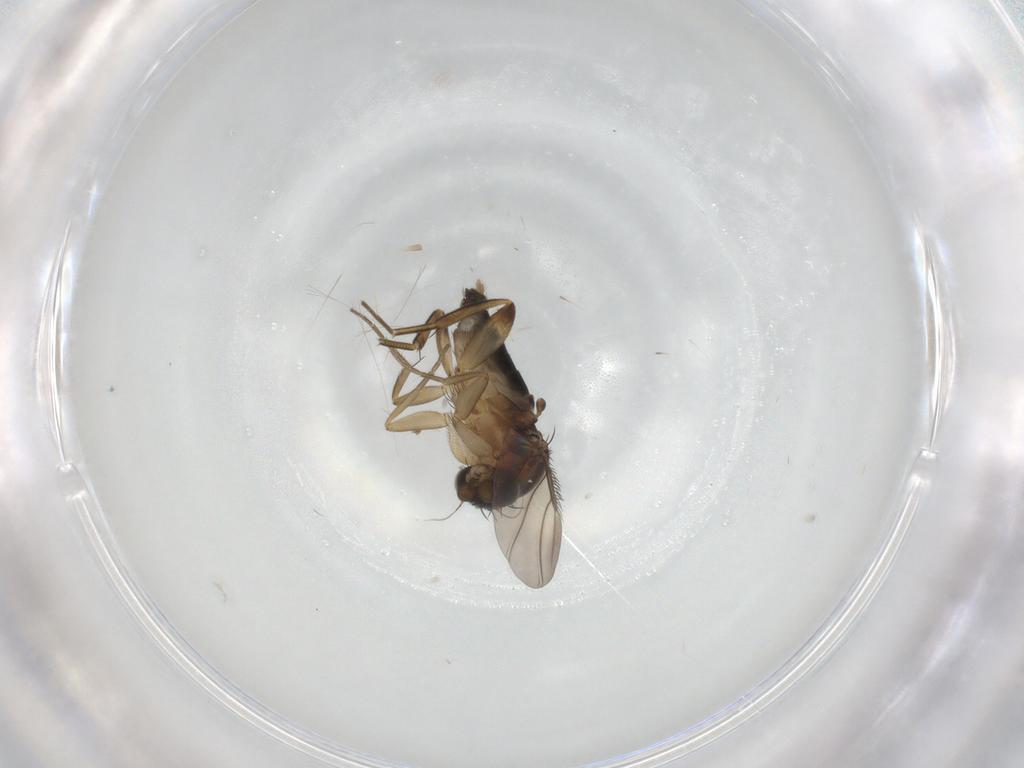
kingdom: Animalia
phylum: Arthropoda
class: Insecta
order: Diptera
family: Phoridae
